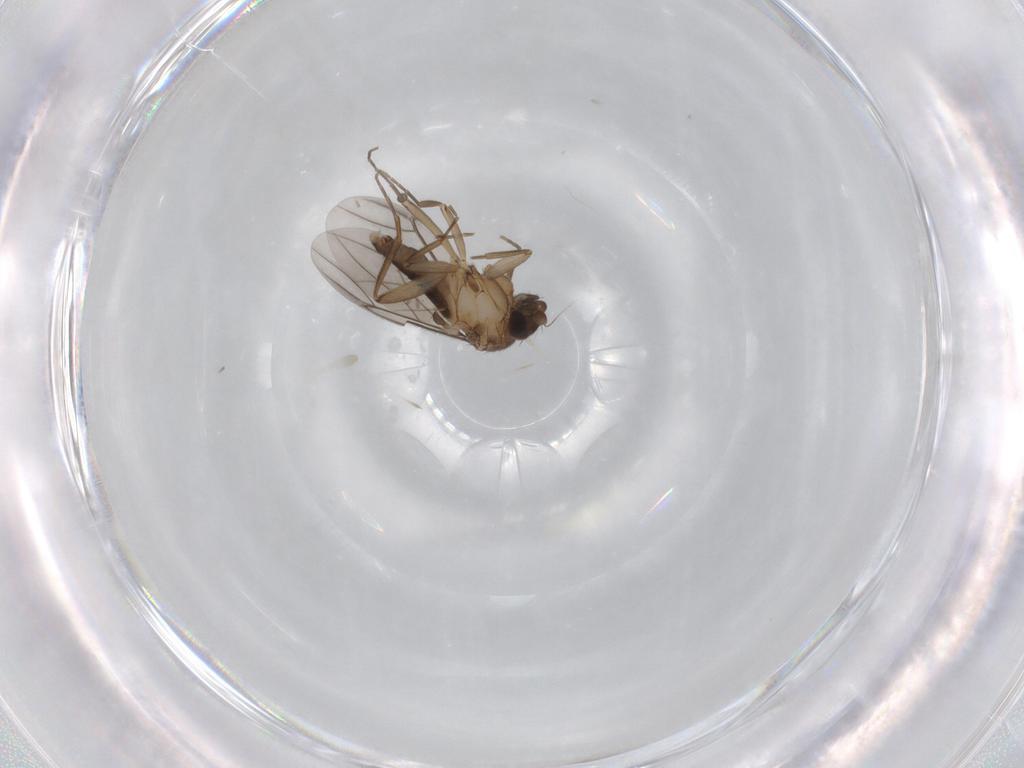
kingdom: Animalia
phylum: Arthropoda
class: Insecta
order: Diptera
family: Phoridae
